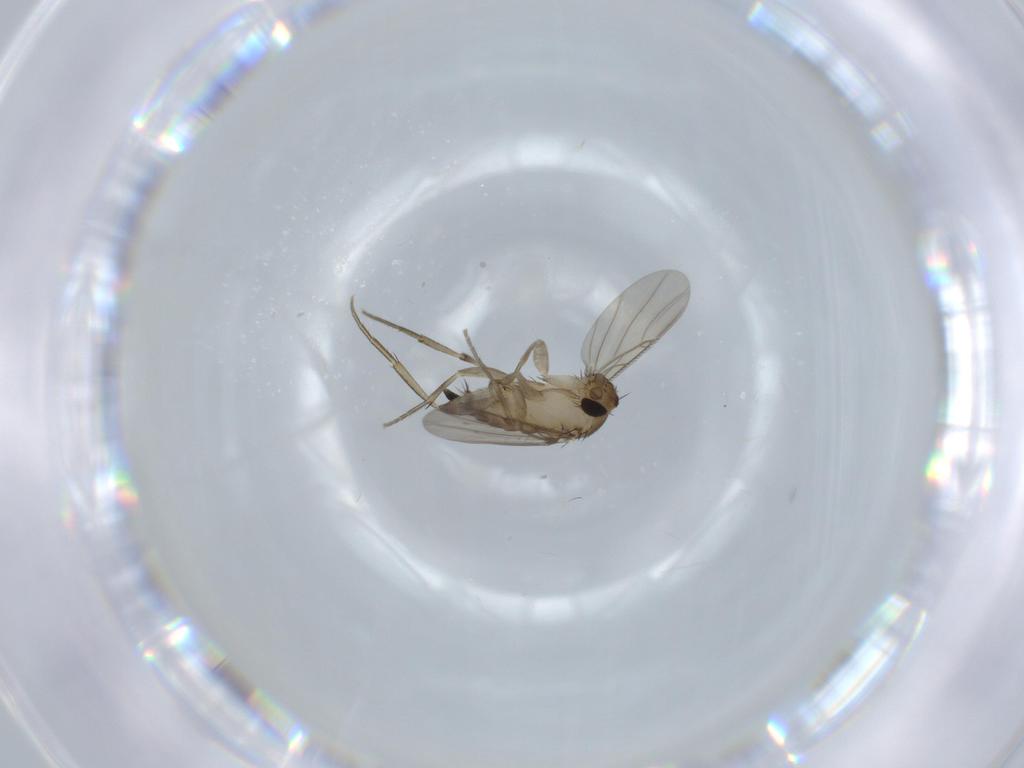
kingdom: Animalia
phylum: Arthropoda
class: Insecta
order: Diptera
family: Phoridae
